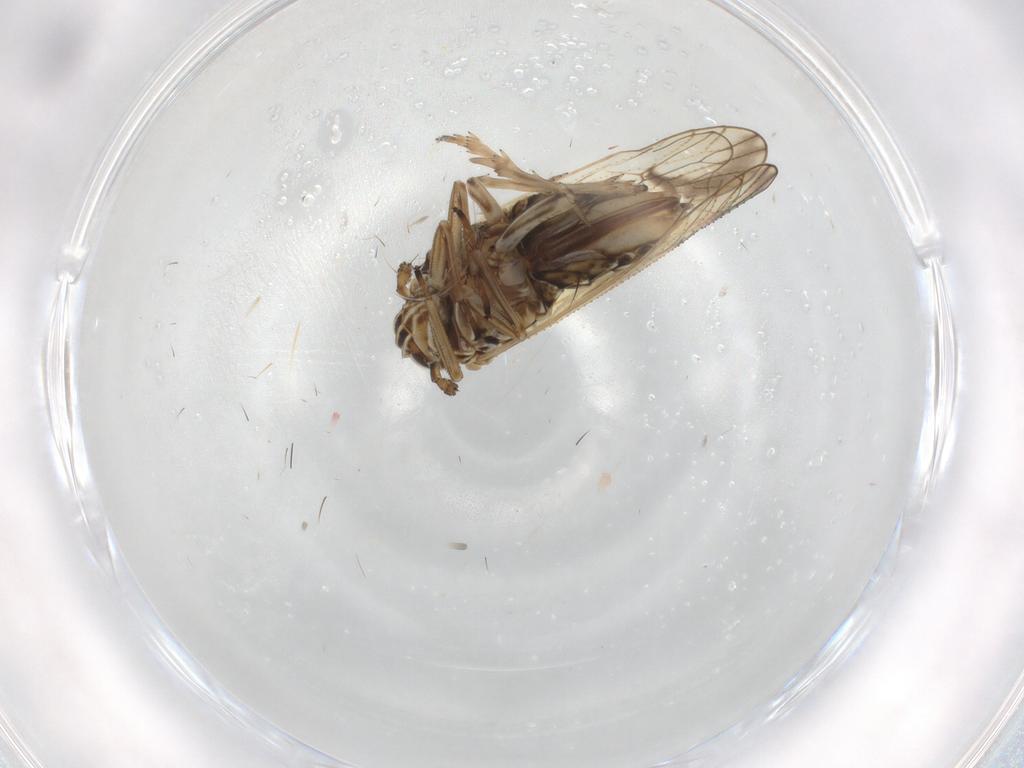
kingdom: Animalia
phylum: Arthropoda
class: Insecta
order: Hemiptera
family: Delphacidae
